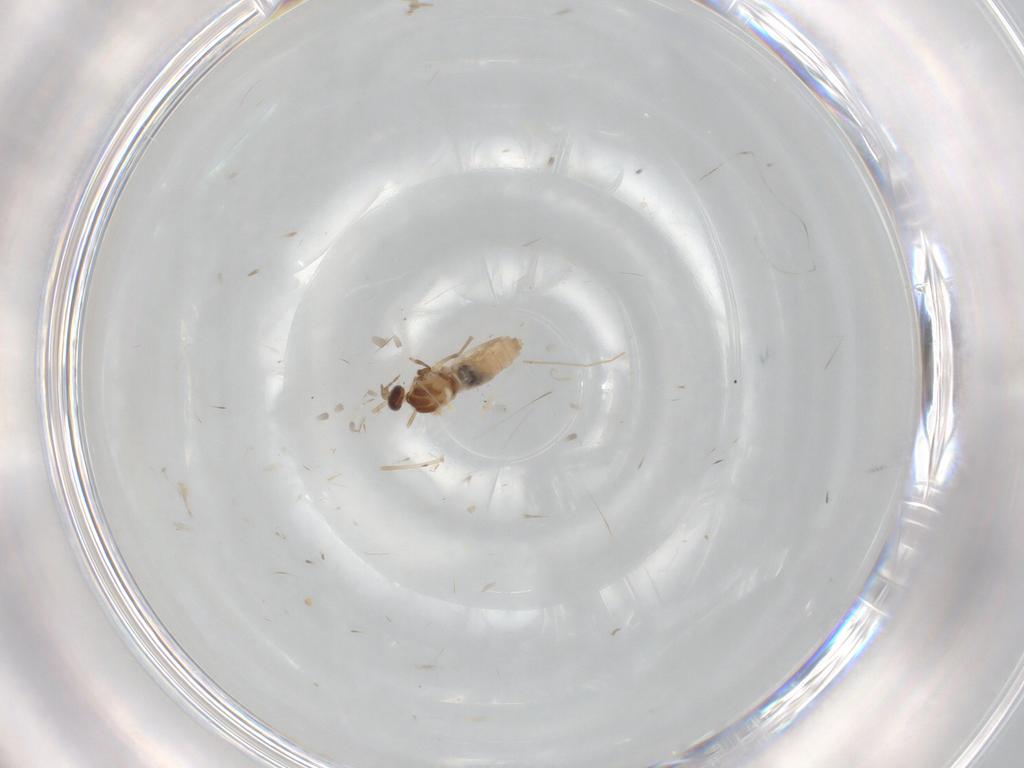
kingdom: Animalia
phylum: Arthropoda
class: Insecta
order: Diptera
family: Cecidomyiidae
